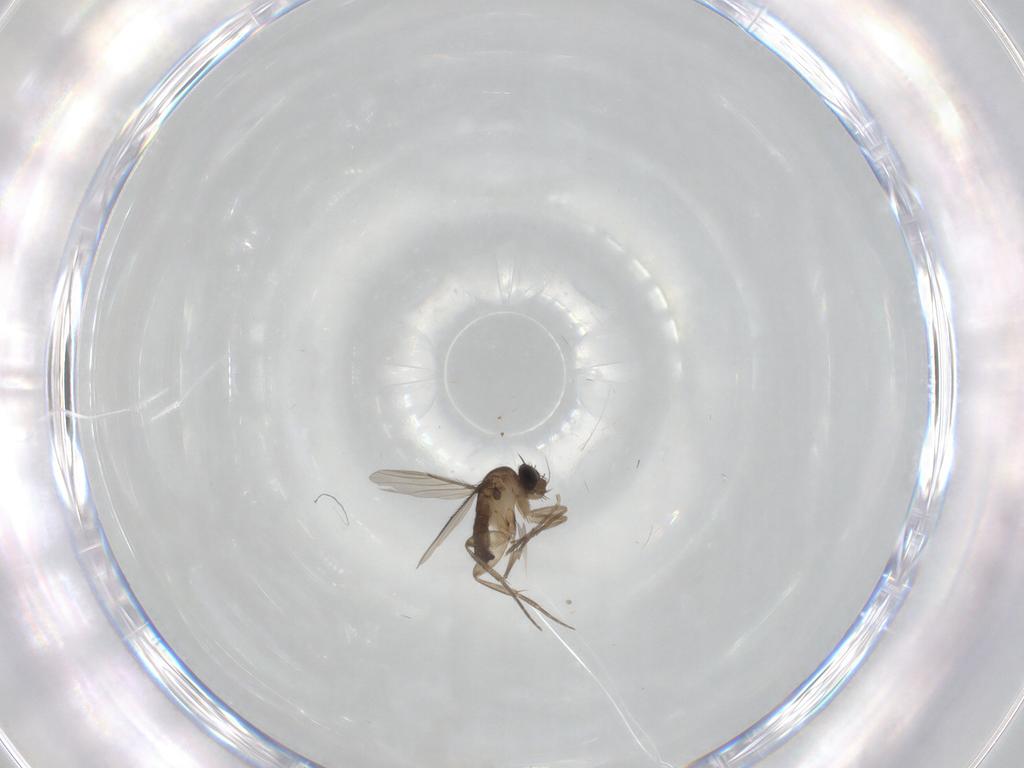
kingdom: Animalia
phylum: Arthropoda
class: Insecta
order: Diptera
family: Phoridae
